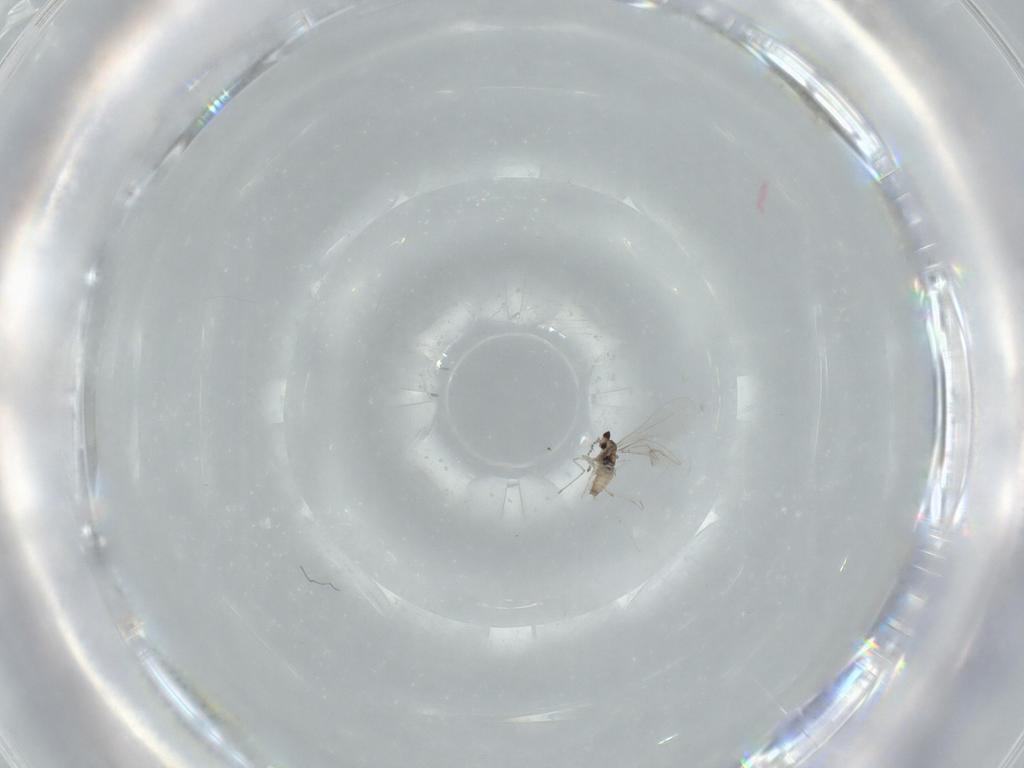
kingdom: Animalia
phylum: Arthropoda
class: Insecta
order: Diptera
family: Cecidomyiidae
